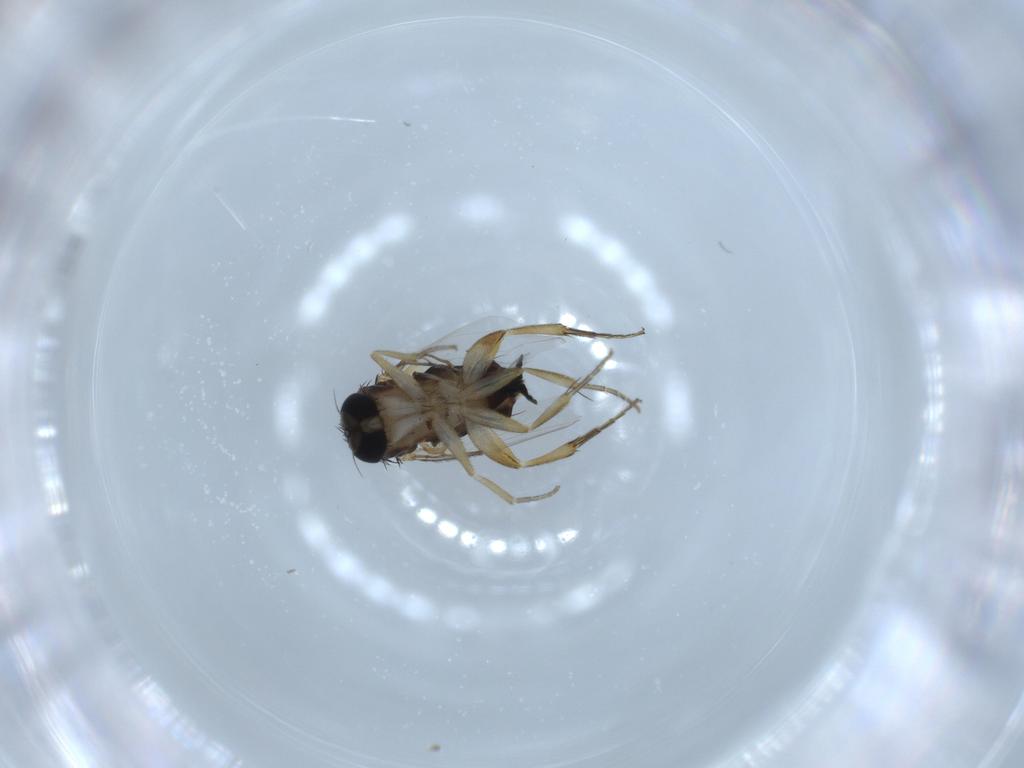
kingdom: Animalia
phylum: Arthropoda
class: Insecta
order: Diptera
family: Phoridae
